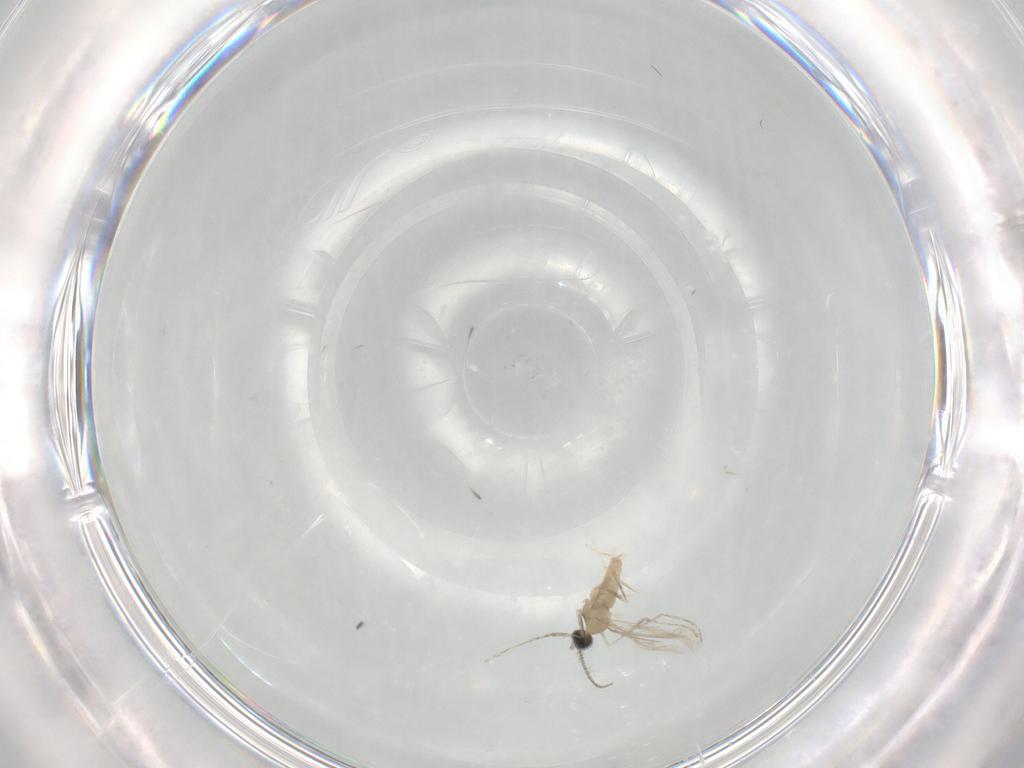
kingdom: Animalia
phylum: Arthropoda
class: Insecta
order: Diptera
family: Cecidomyiidae
